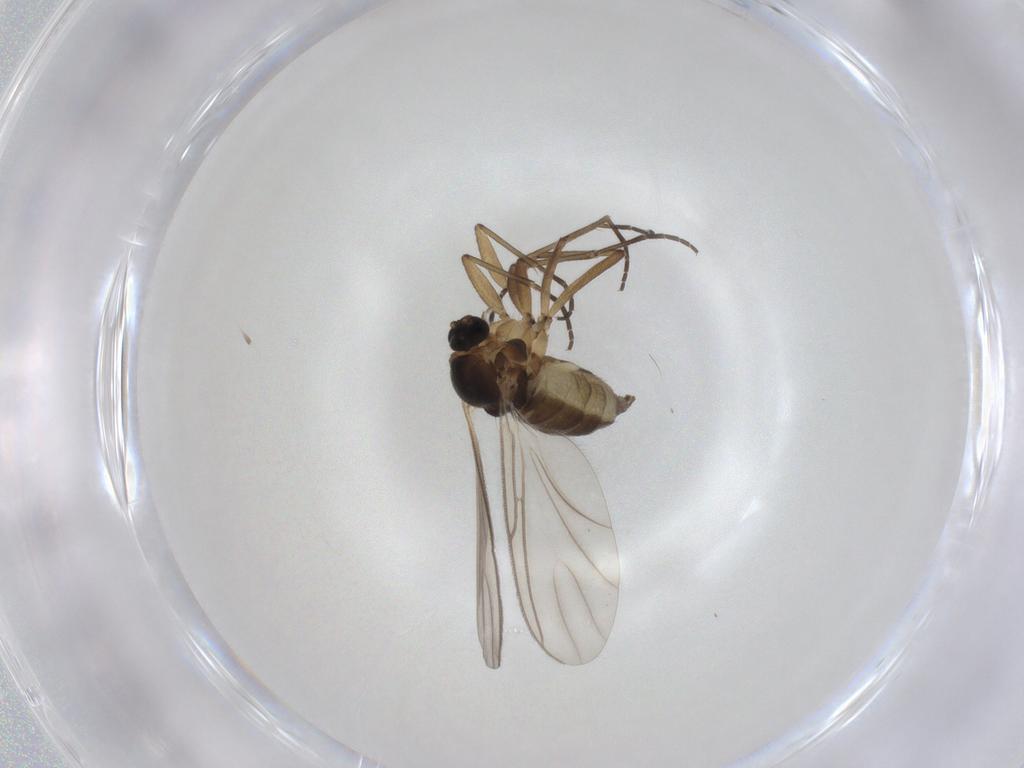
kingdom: Animalia
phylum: Arthropoda
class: Insecta
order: Diptera
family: Sciaridae
